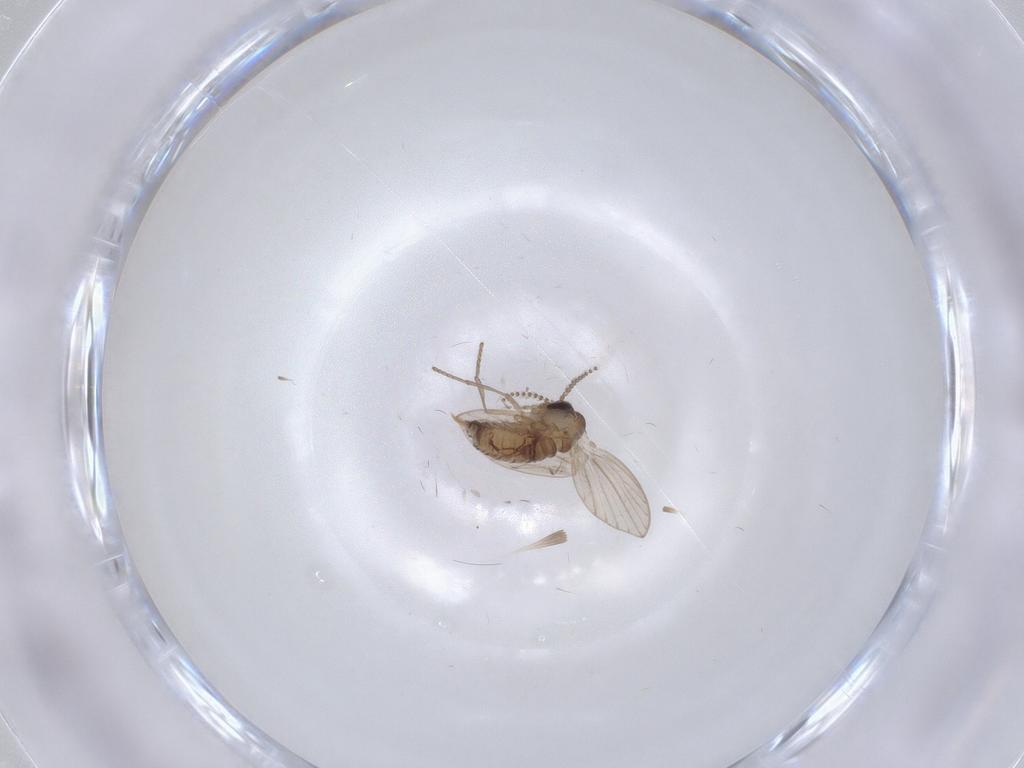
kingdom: Animalia
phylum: Arthropoda
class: Insecta
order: Diptera
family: Psychodidae
